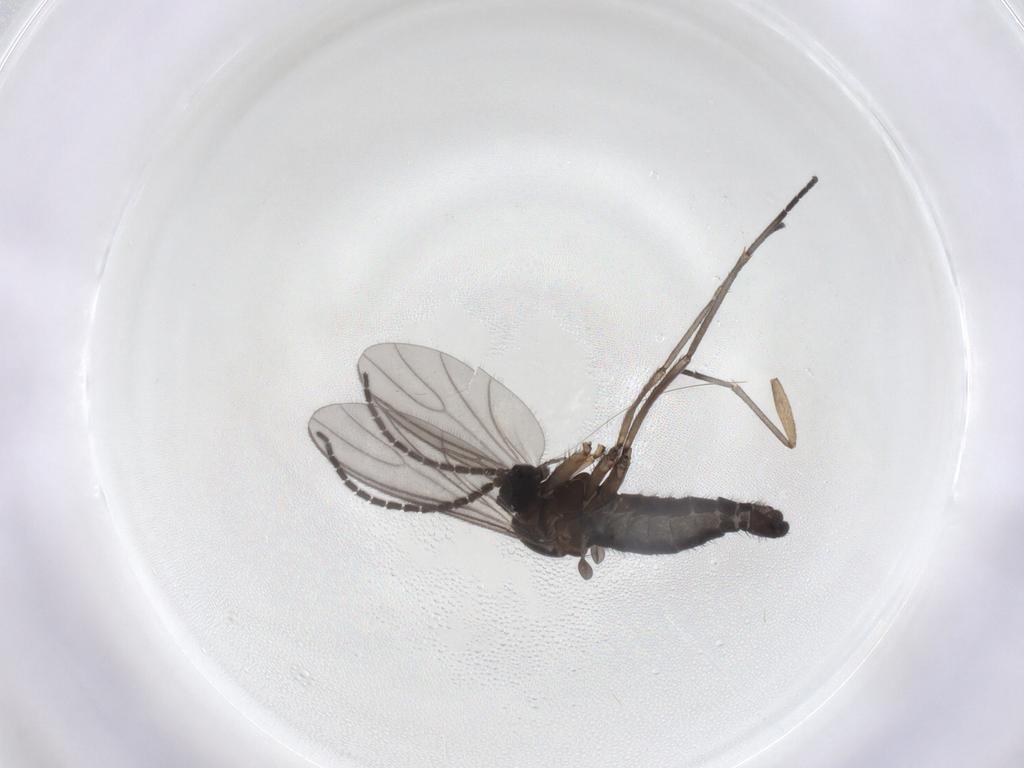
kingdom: Animalia
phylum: Arthropoda
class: Insecta
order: Diptera
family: Sciaridae
